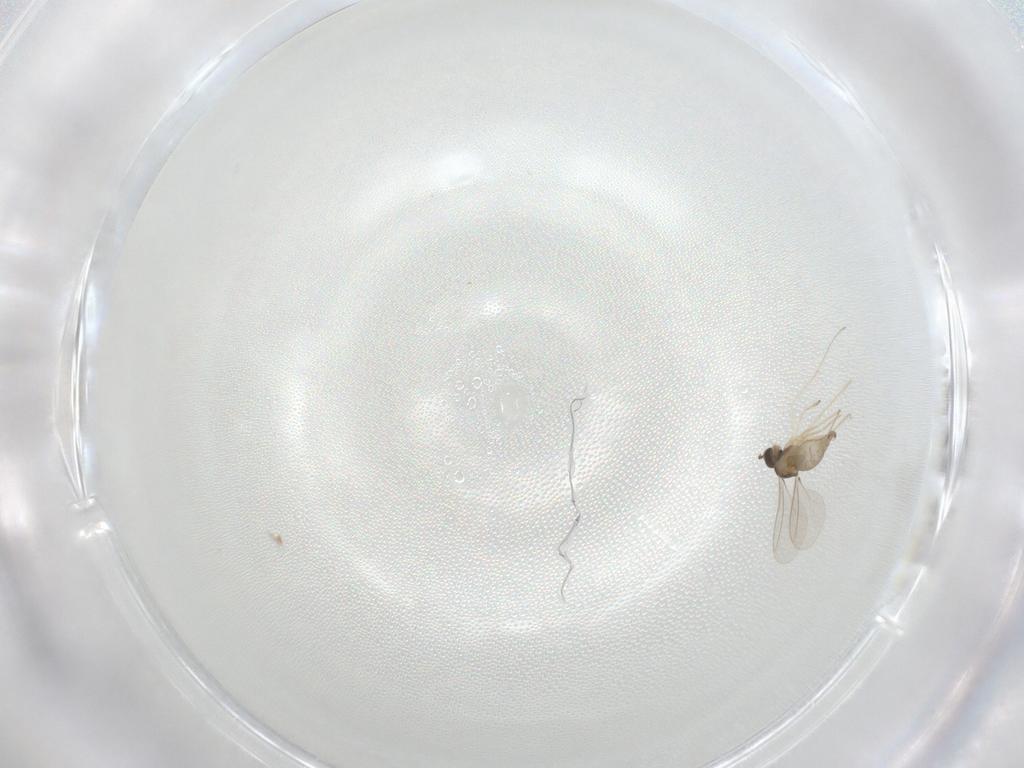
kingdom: Animalia
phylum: Arthropoda
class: Insecta
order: Diptera
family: Cecidomyiidae
